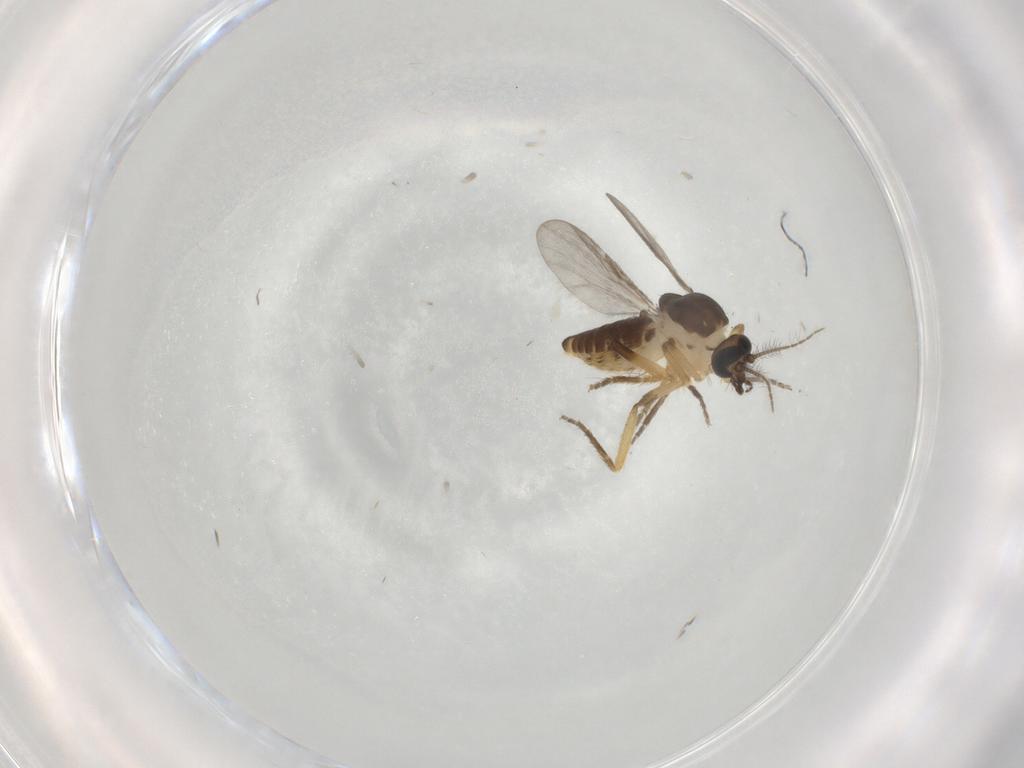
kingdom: Animalia
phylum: Arthropoda
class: Insecta
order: Diptera
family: Ceratopogonidae
